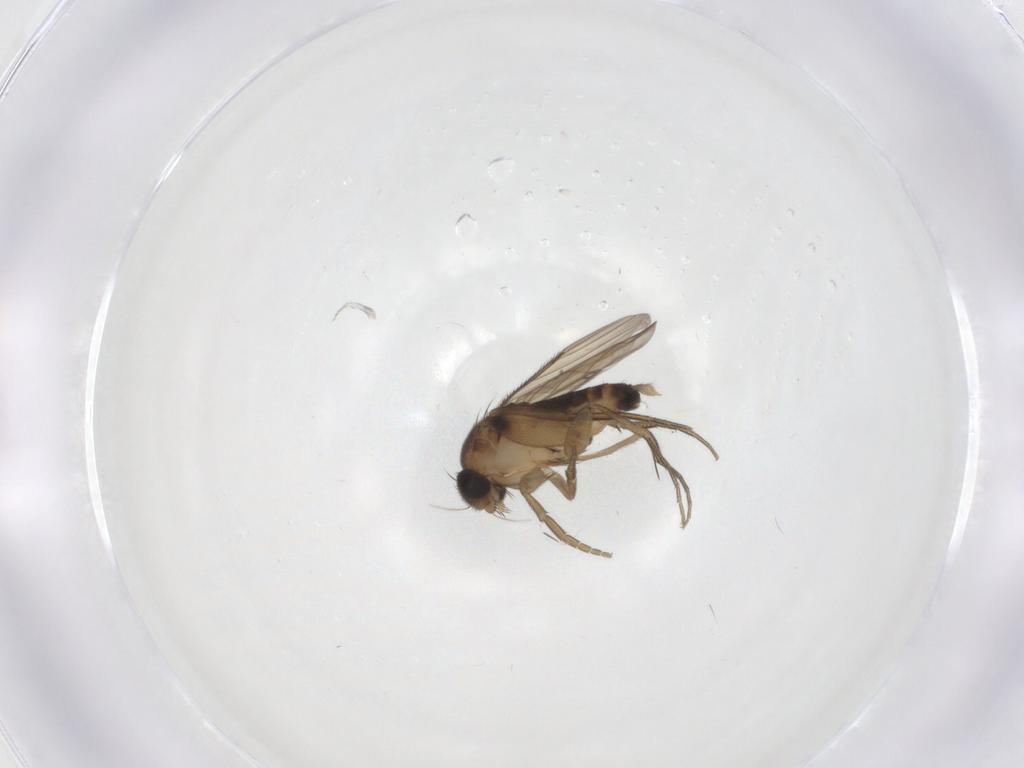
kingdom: Animalia
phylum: Arthropoda
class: Insecta
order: Diptera
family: Phoridae
